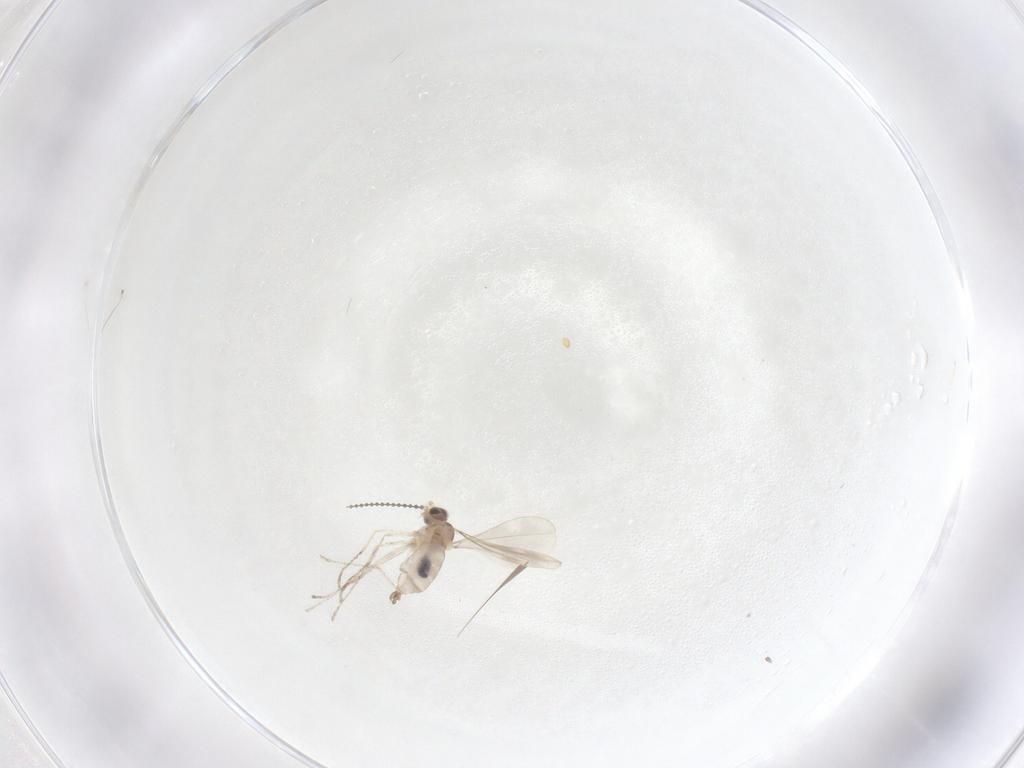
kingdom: Animalia
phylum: Arthropoda
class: Insecta
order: Diptera
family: Cecidomyiidae
